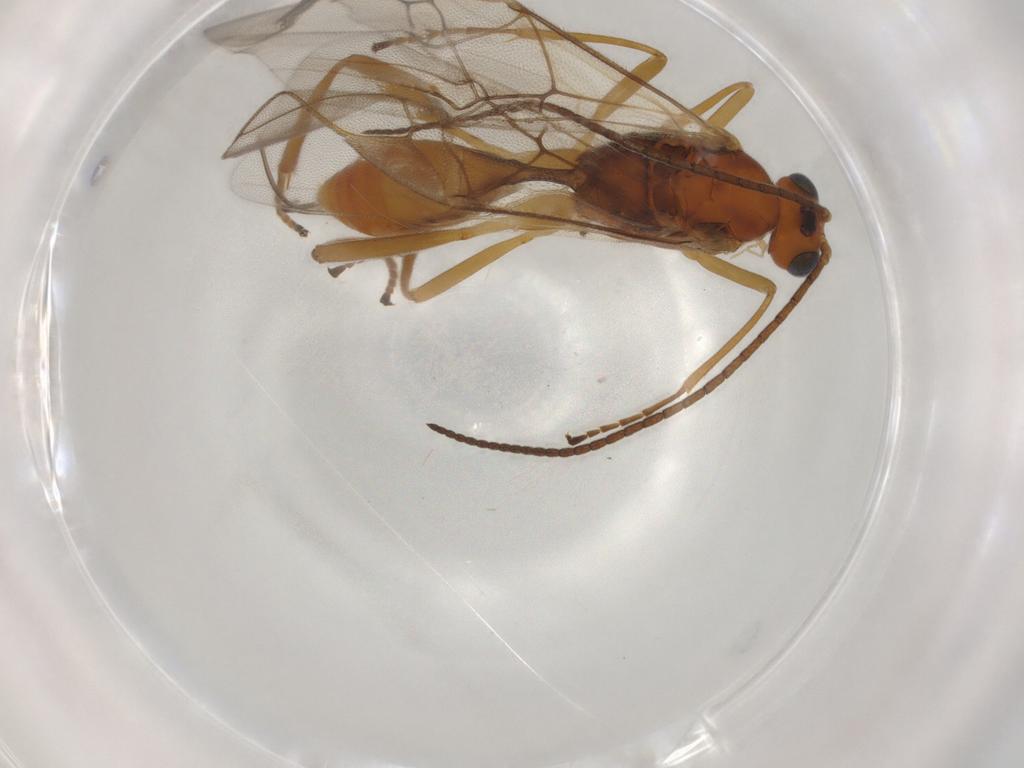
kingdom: Animalia
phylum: Arthropoda
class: Insecta
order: Hymenoptera
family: Braconidae
